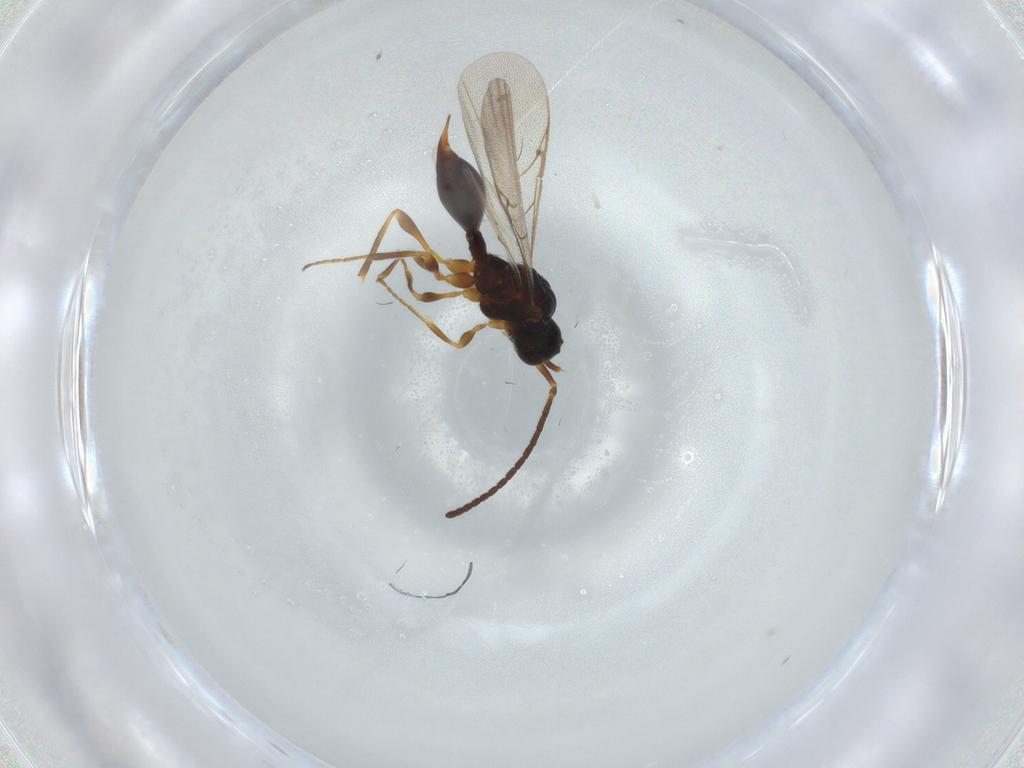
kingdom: Animalia
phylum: Arthropoda
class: Insecta
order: Hymenoptera
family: Diapriidae
